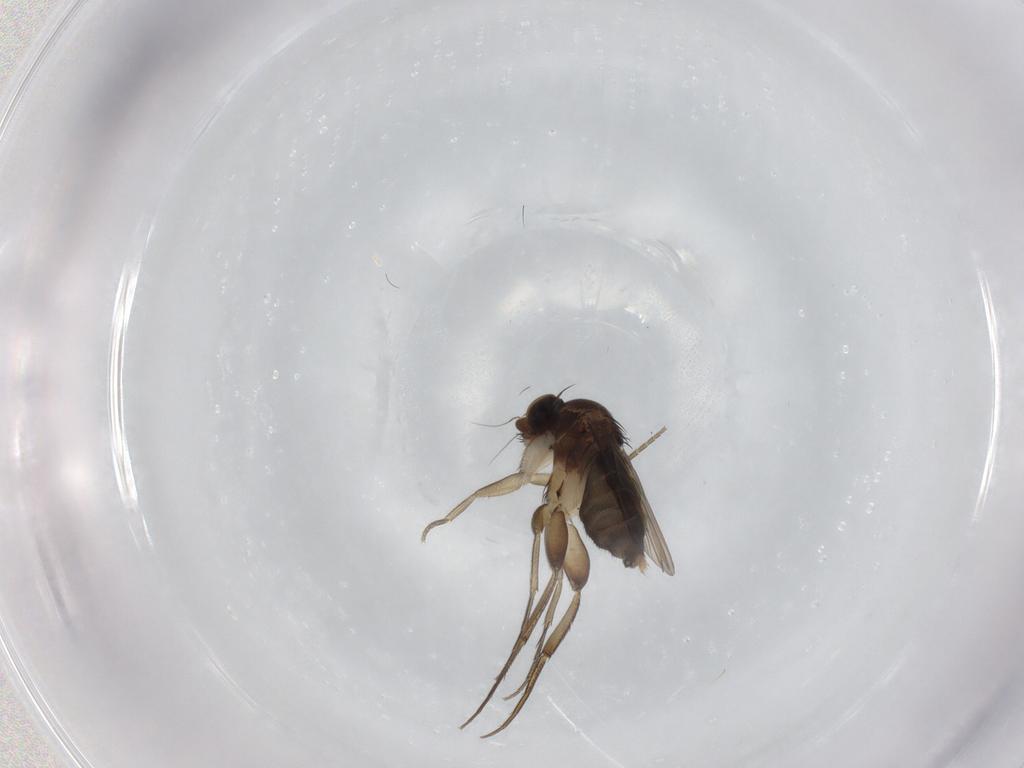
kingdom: Animalia
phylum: Arthropoda
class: Insecta
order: Diptera
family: Phoridae
